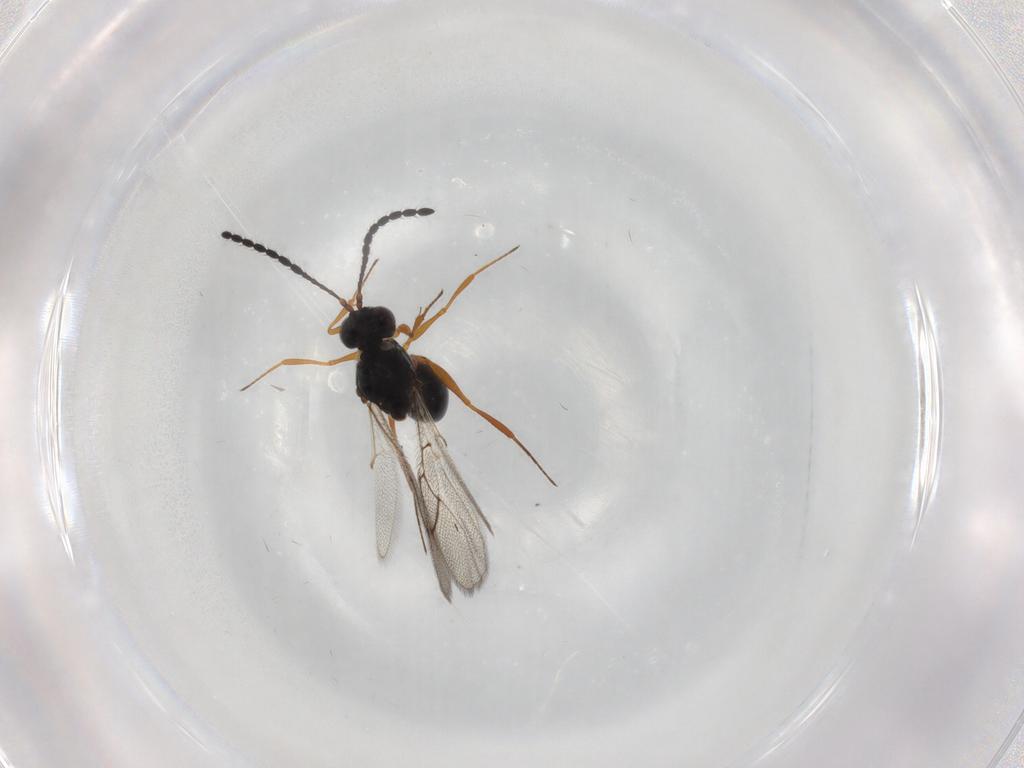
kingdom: Animalia
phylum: Arthropoda
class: Insecta
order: Hymenoptera
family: Figitidae
